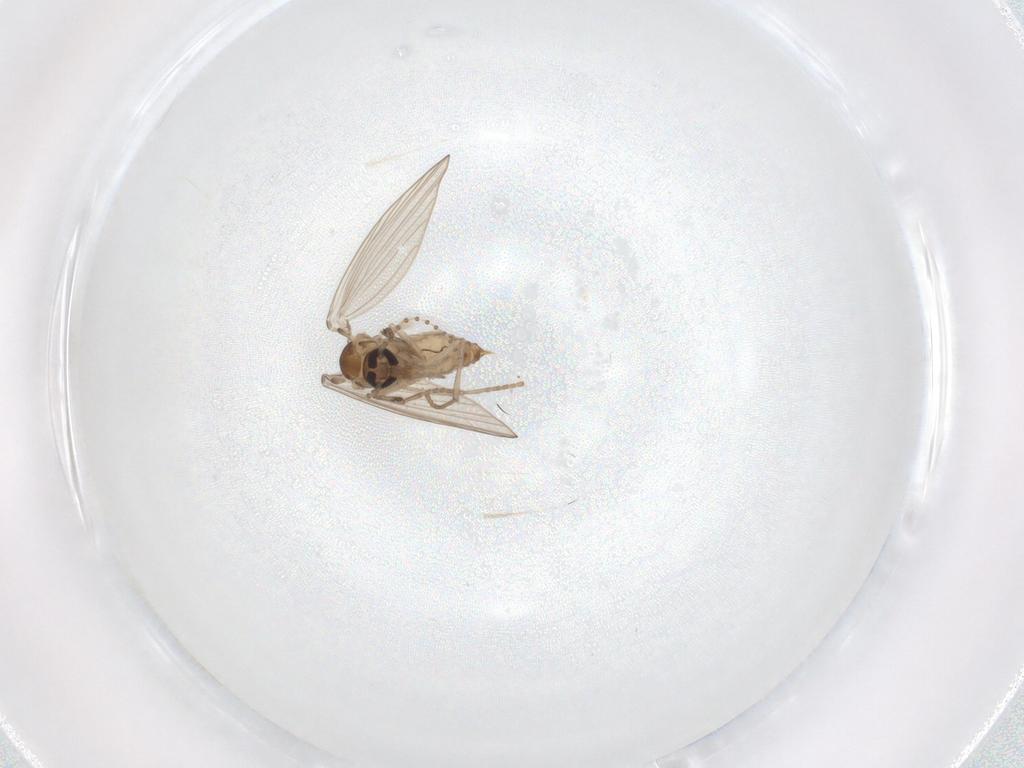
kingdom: Animalia
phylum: Arthropoda
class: Insecta
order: Diptera
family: Psychodidae
